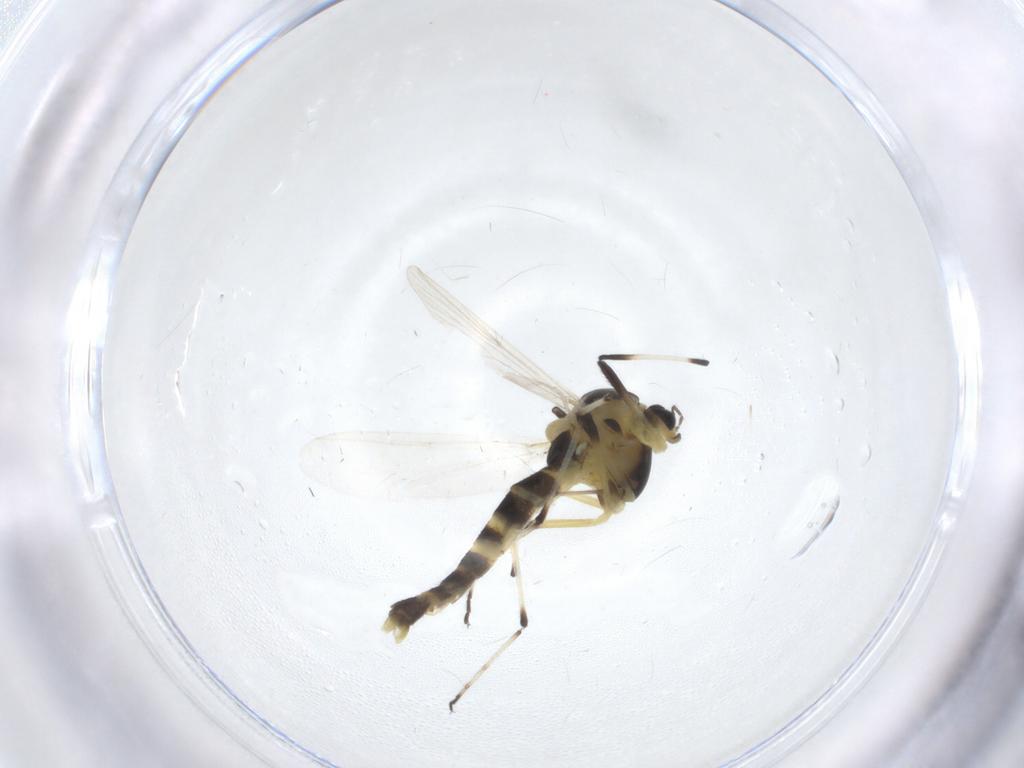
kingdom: Animalia
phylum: Arthropoda
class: Insecta
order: Diptera
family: Chironomidae
